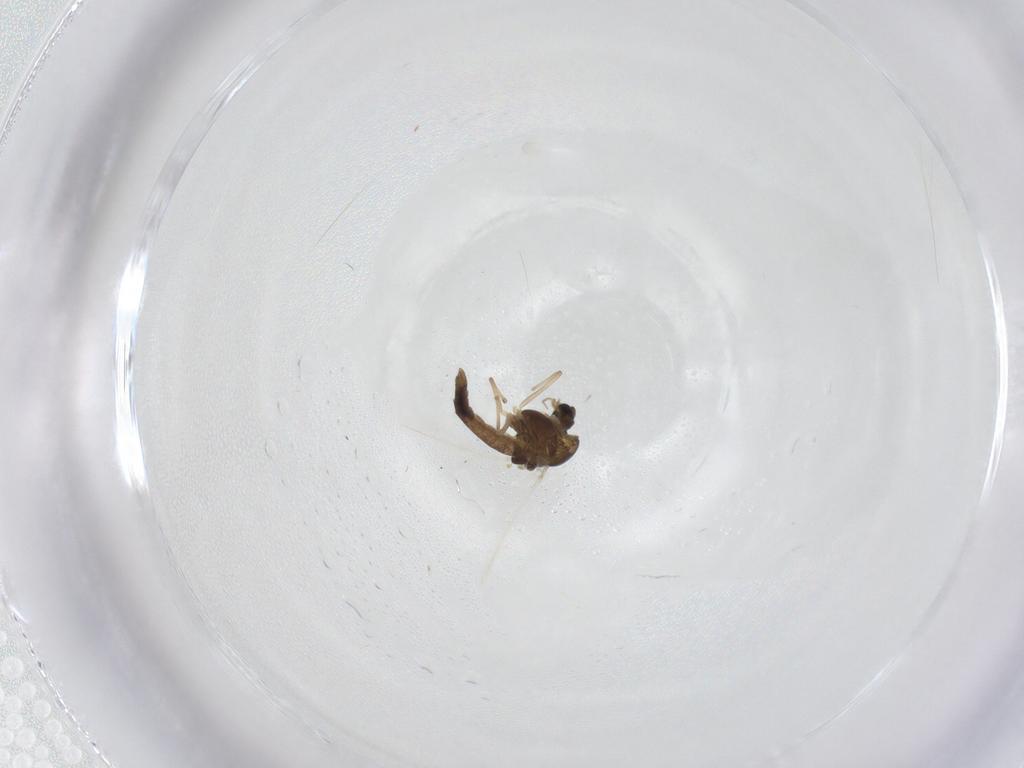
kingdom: Animalia
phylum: Arthropoda
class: Insecta
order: Diptera
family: Chironomidae
